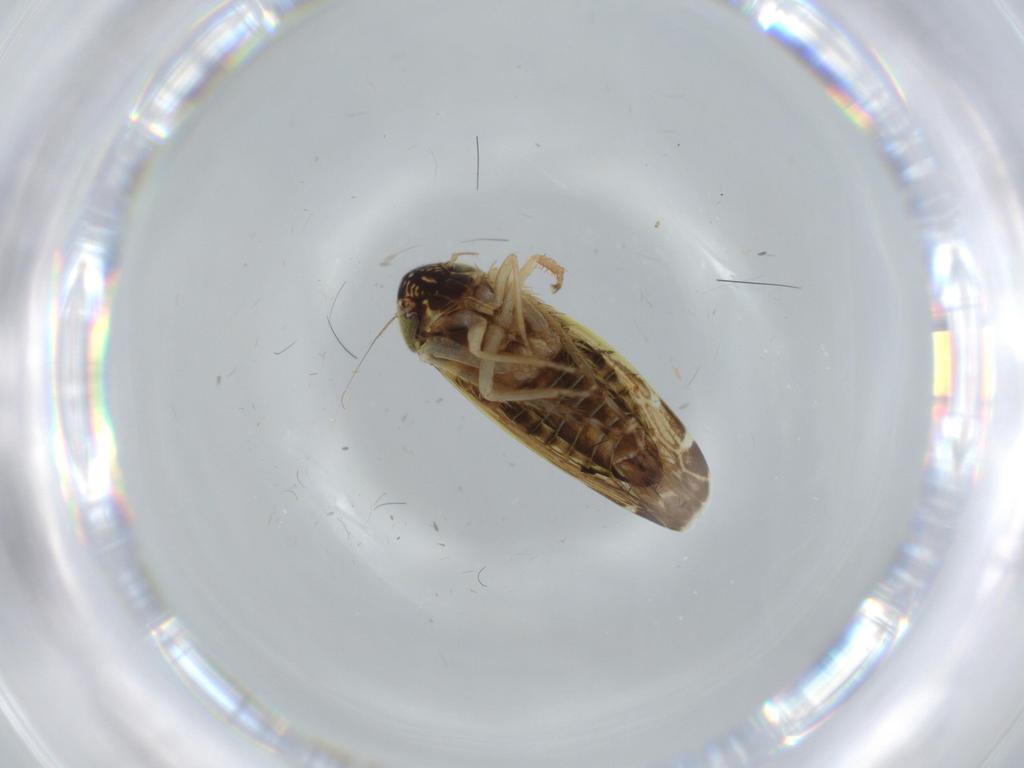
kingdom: Animalia
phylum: Arthropoda
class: Insecta
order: Hemiptera
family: Cicadellidae
